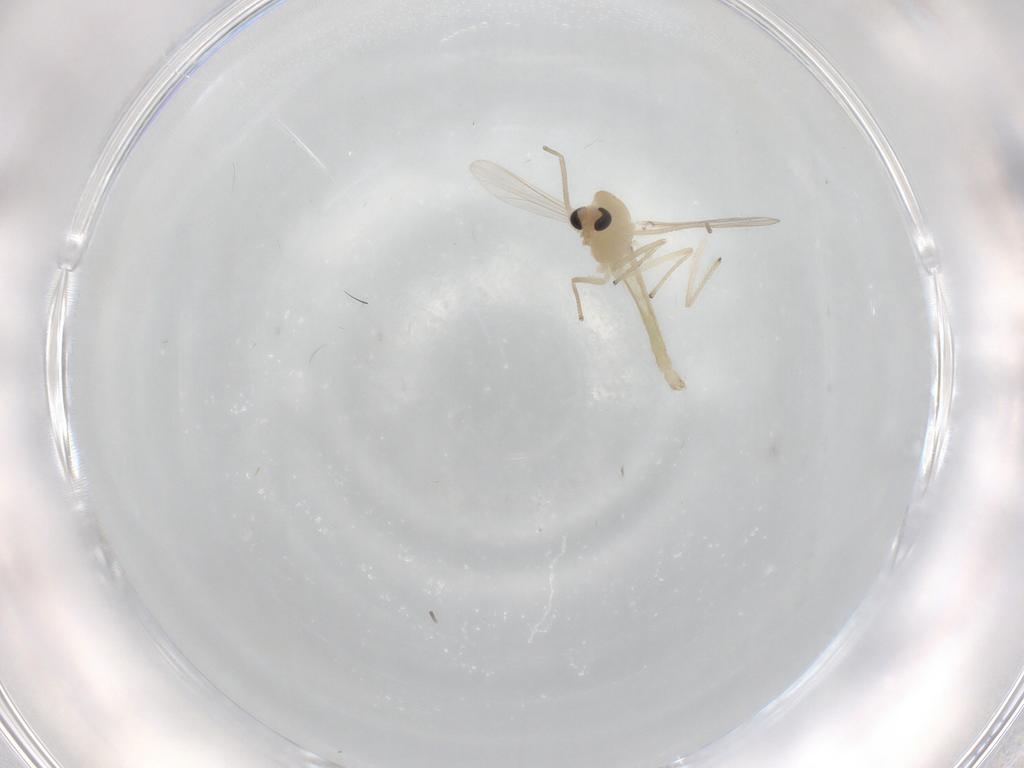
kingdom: Animalia
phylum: Arthropoda
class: Insecta
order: Diptera
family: Chironomidae
